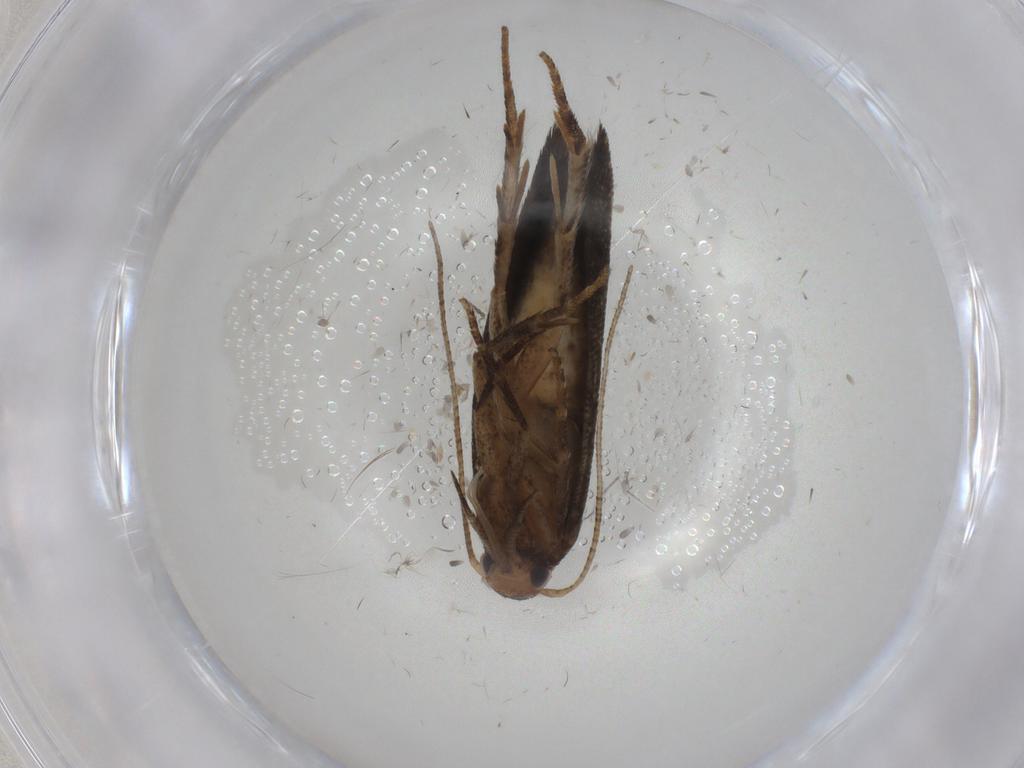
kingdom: Animalia
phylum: Arthropoda
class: Insecta
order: Lepidoptera
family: Gelechiidae
